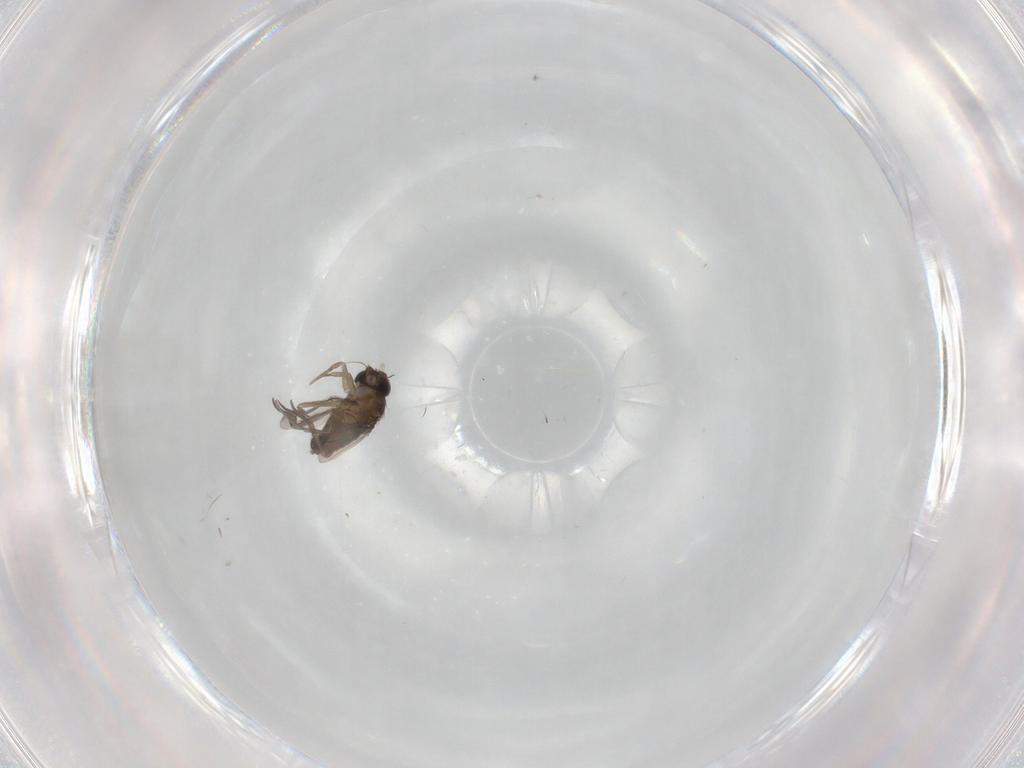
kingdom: Animalia
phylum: Arthropoda
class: Insecta
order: Diptera
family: Phoridae
